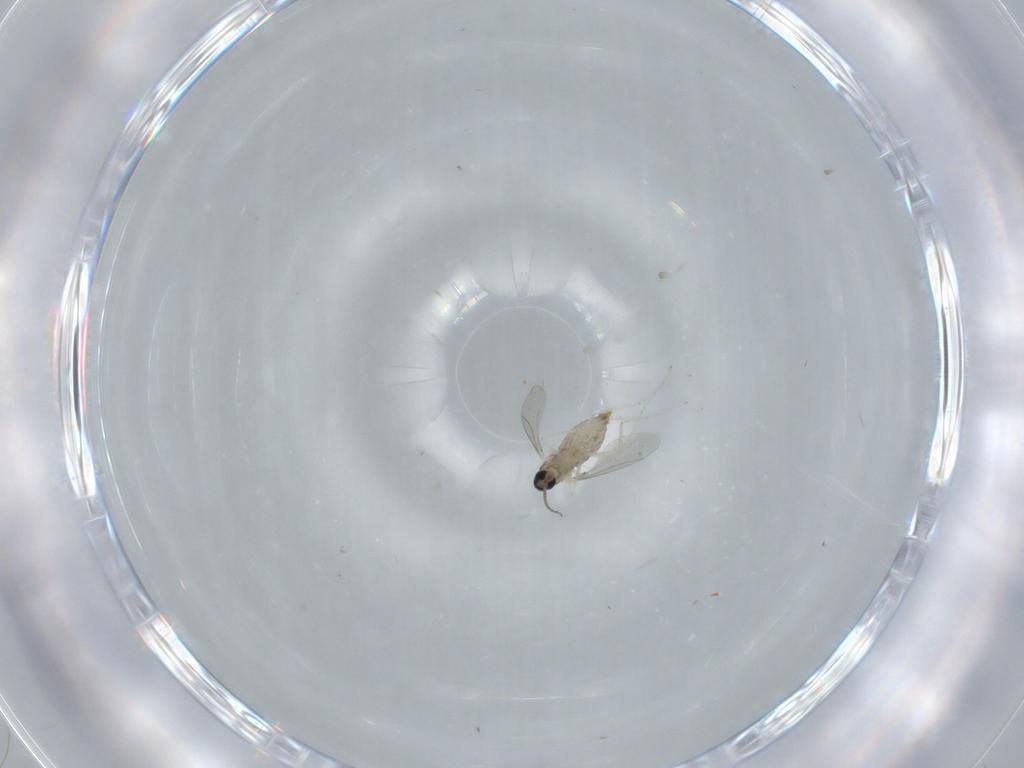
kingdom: Animalia
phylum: Arthropoda
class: Insecta
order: Diptera
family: Cecidomyiidae
